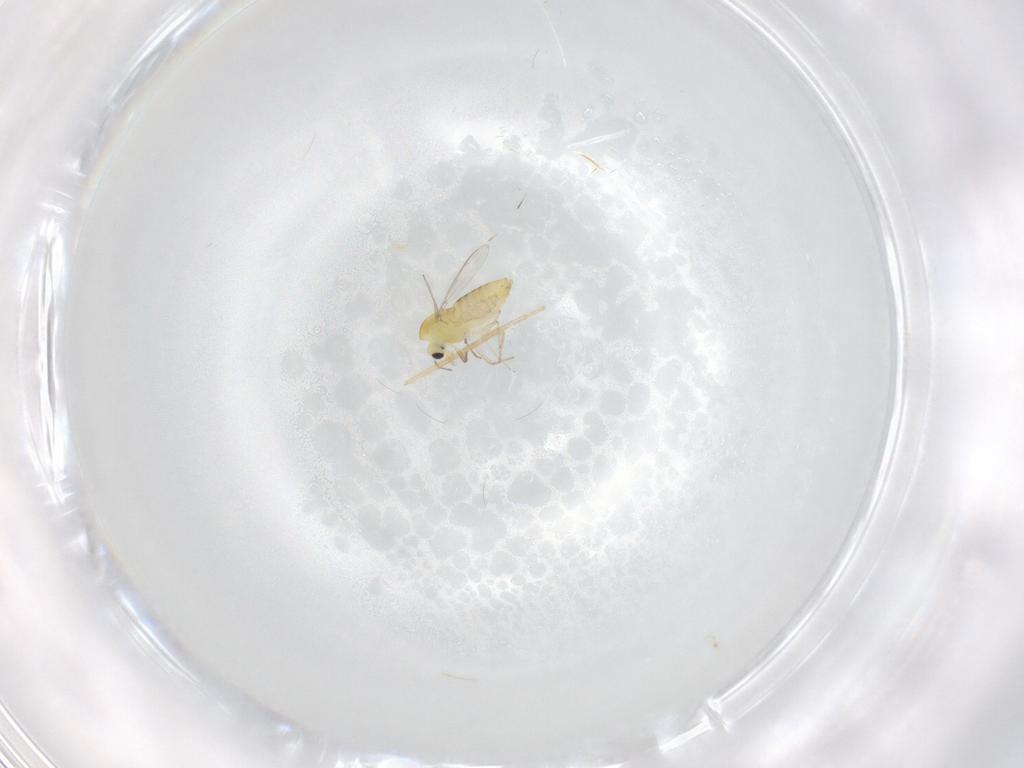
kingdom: Animalia
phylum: Arthropoda
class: Insecta
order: Diptera
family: Chironomidae
